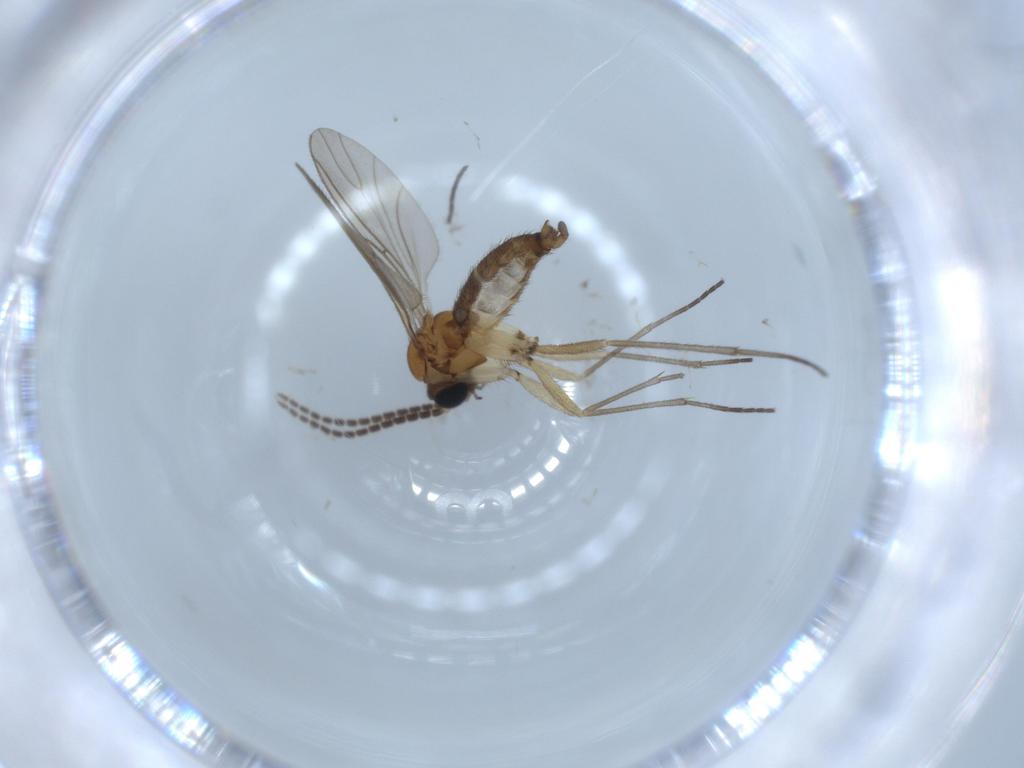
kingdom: Animalia
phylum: Arthropoda
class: Insecta
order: Diptera
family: Sciaridae
